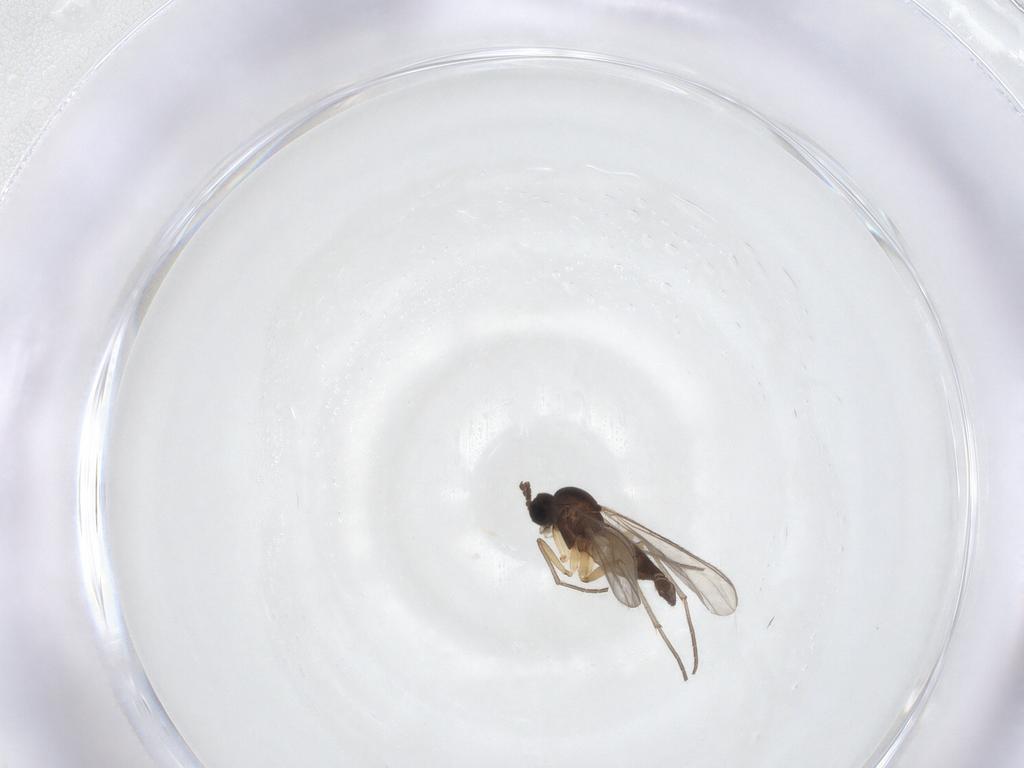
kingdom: Animalia
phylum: Arthropoda
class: Insecta
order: Diptera
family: Sciaridae
